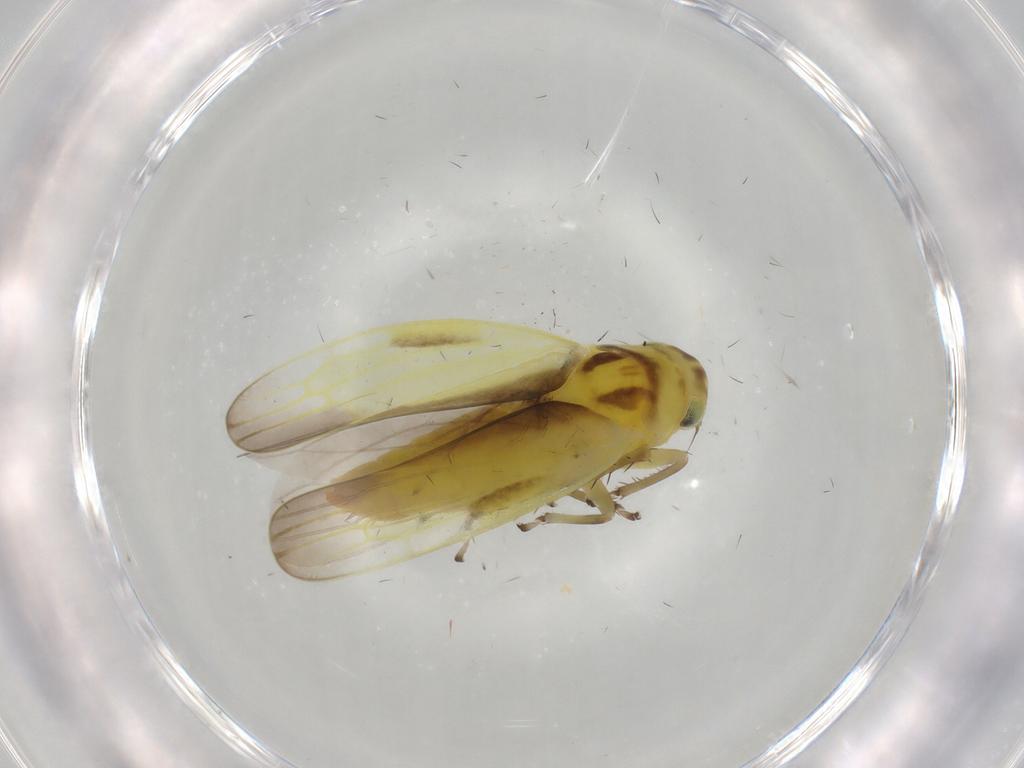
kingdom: Animalia
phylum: Arthropoda
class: Insecta
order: Hemiptera
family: Cicadellidae
